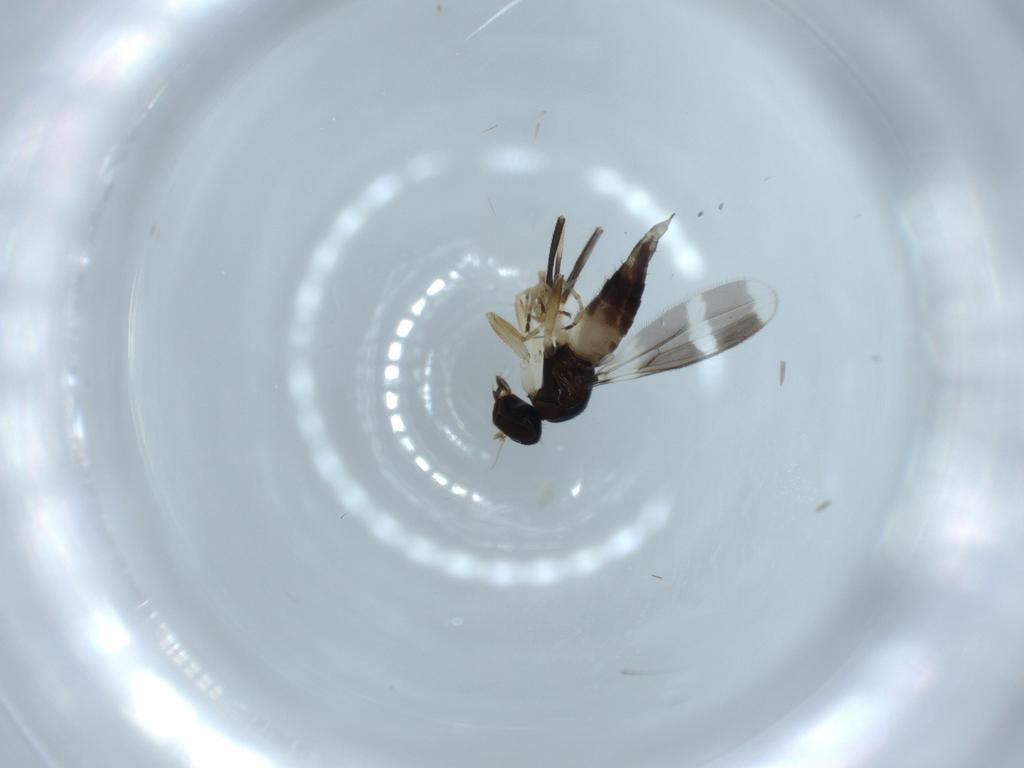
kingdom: Animalia
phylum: Arthropoda
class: Insecta
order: Diptera
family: Hybotidae
